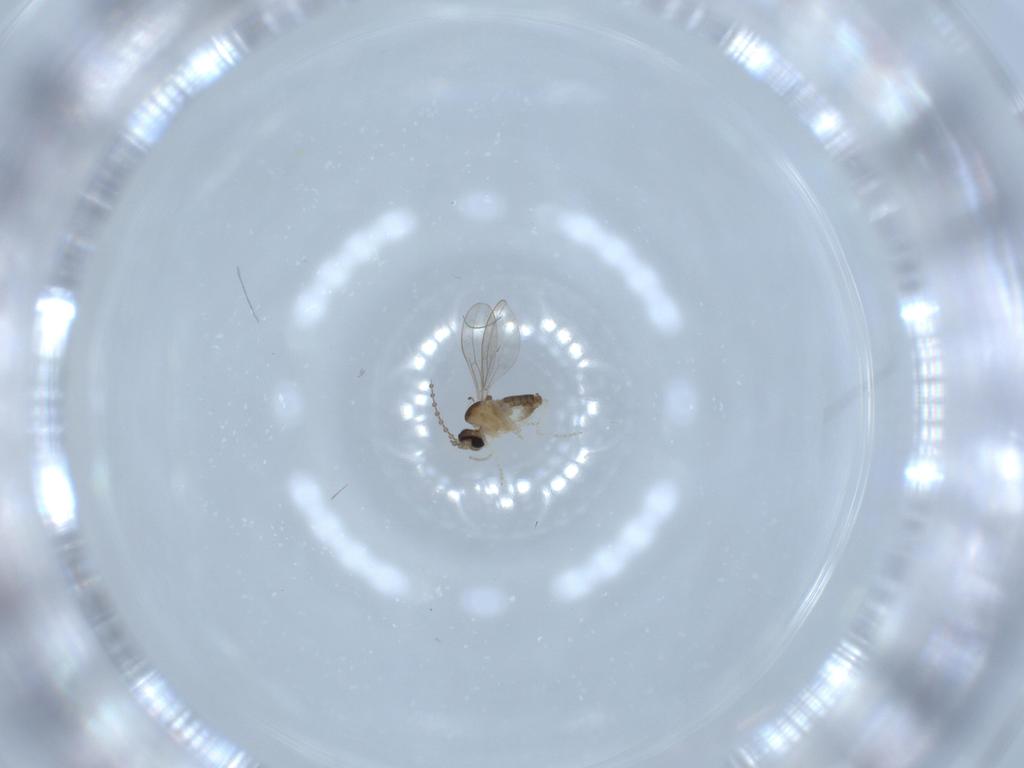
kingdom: Animalia
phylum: Arthropoda
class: Insecta
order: Diptera
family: Cecidomyiidae
